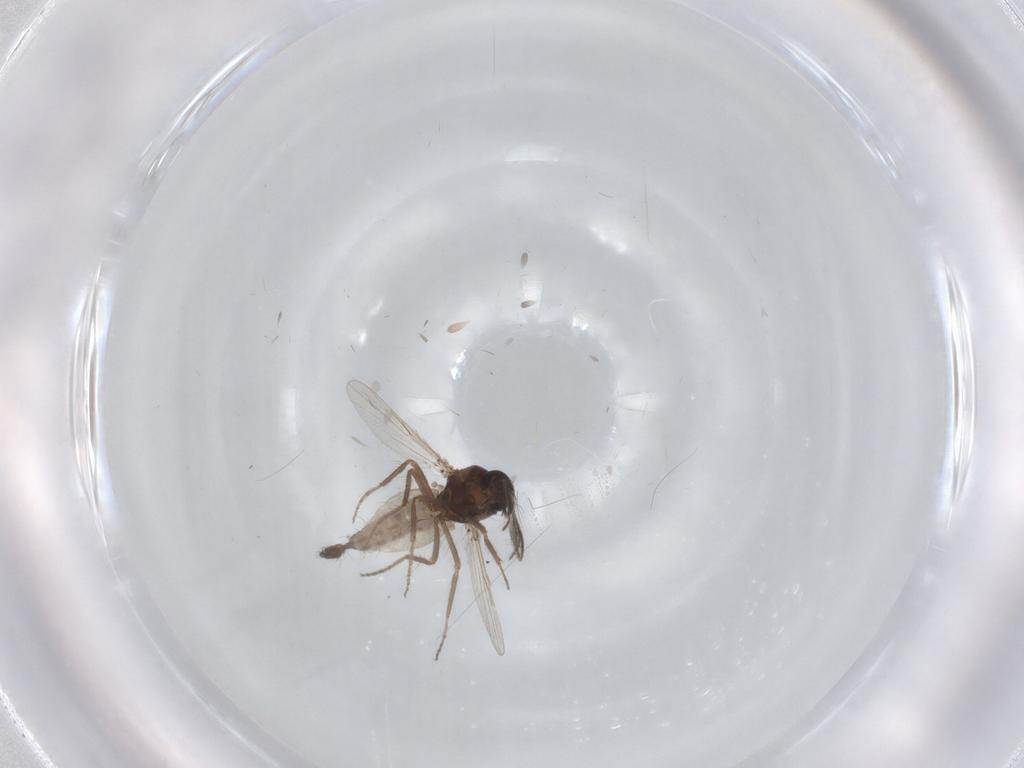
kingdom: Animalia
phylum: Arthropoda
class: Insecta
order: Diptera
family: Ceratopogonidae
